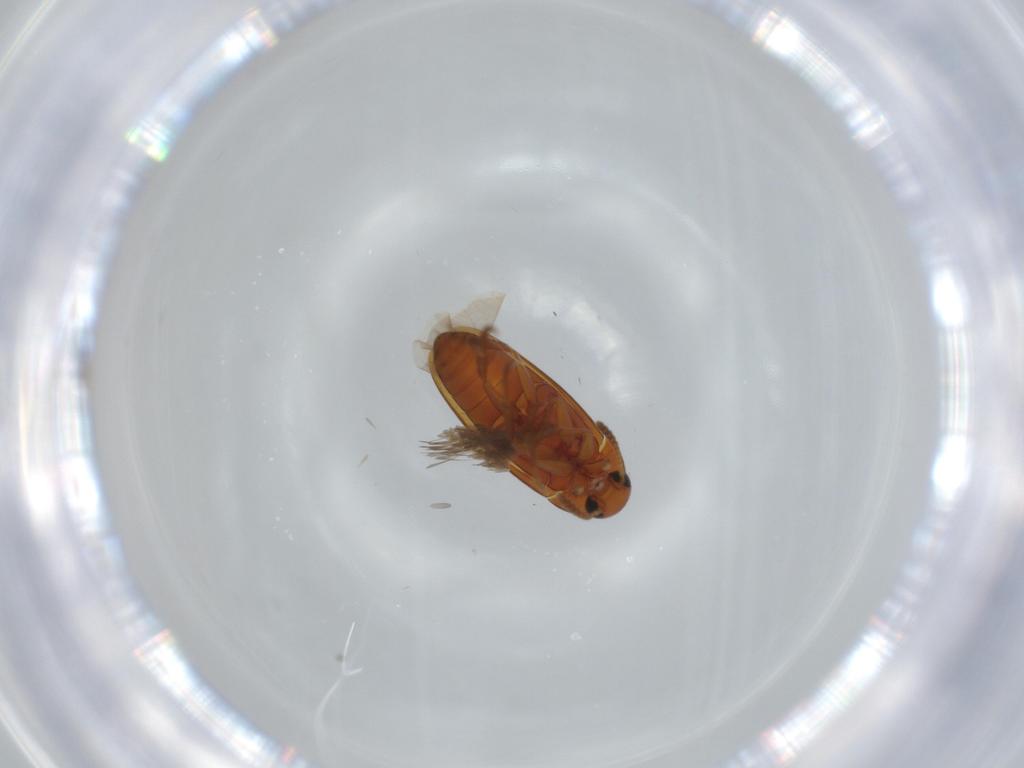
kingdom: Animalia
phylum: Arthropoda
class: Insecta
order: Coleoptera
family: Scraptiidae
